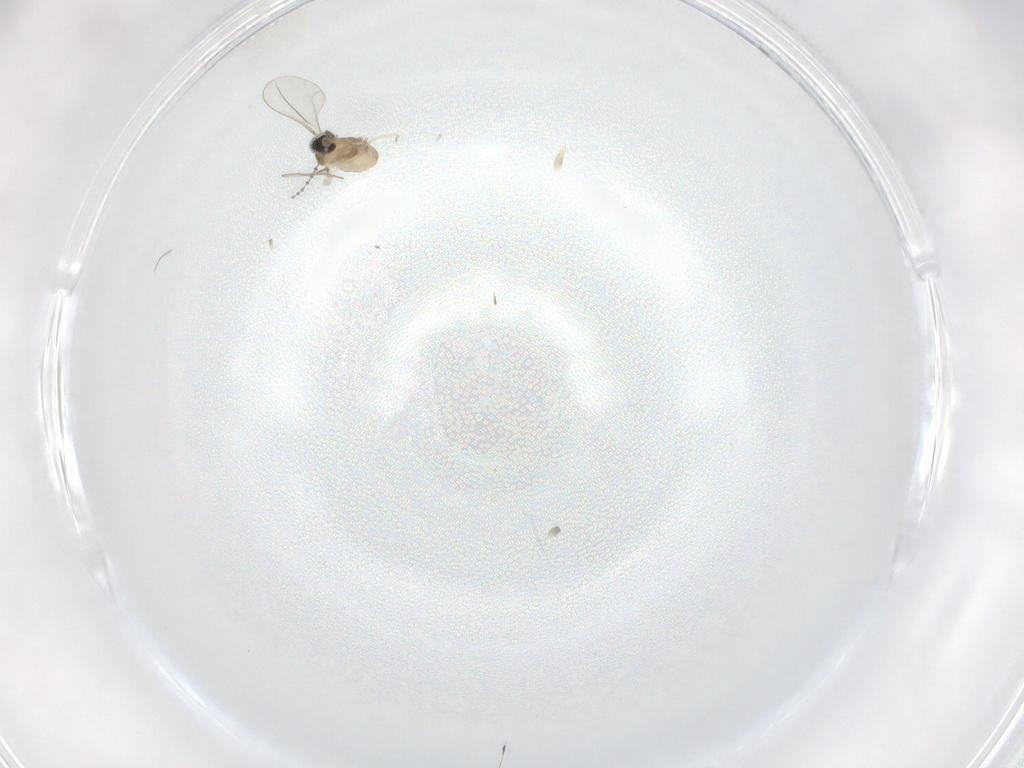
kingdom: Animalia
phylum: Arthropoda
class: Insecta
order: Diptera
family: Cecidomyiidae
